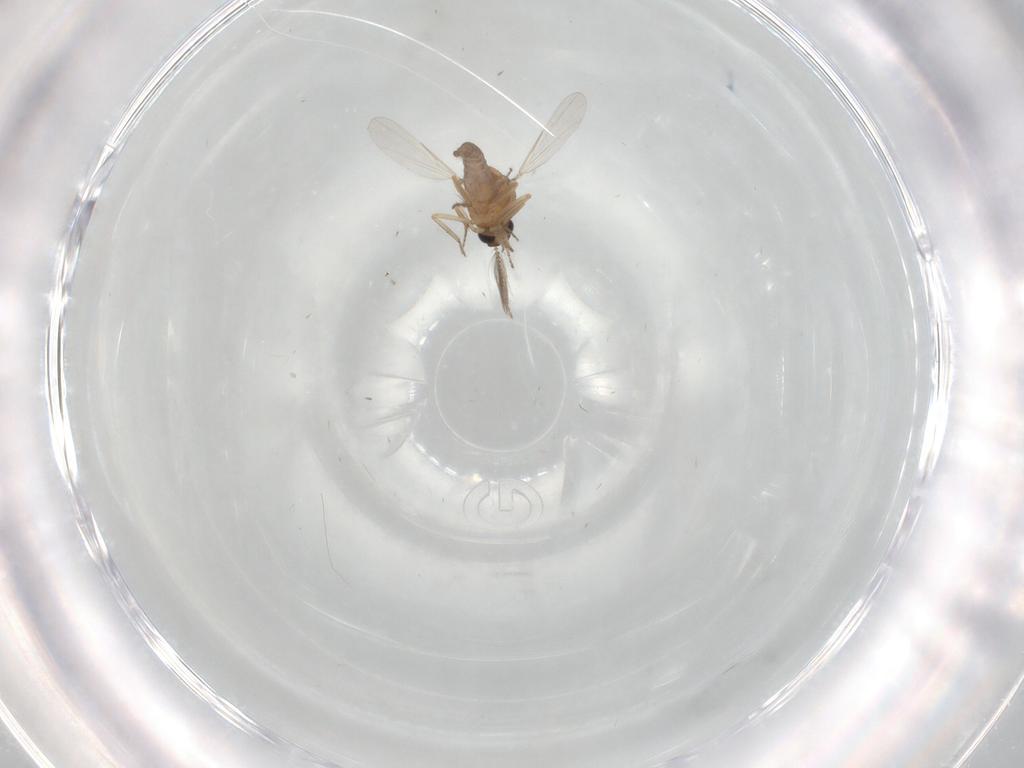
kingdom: Animalia
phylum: Arthropoda
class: Insecta
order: Diptera
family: Ceratopogonidae
